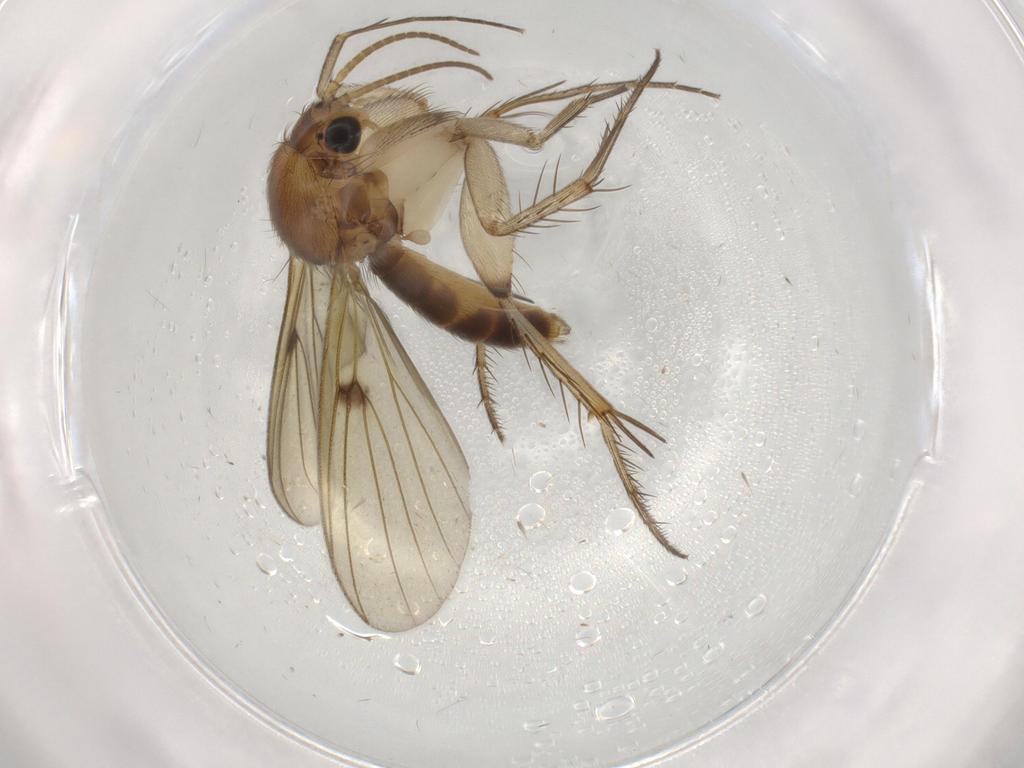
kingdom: Animalia
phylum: Arthropoda
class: Insecta
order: Diptera
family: Mycetophilidae
